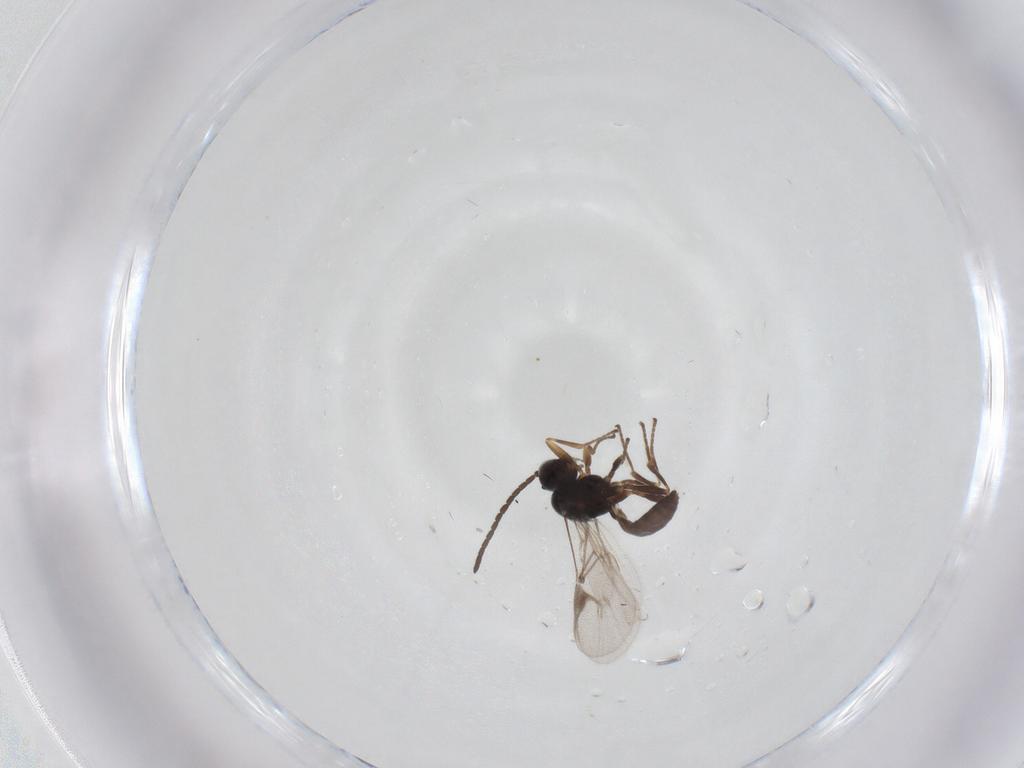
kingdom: Animalia
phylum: Arthropoda
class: Insecta
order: Hymenoptera
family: Braconidae
